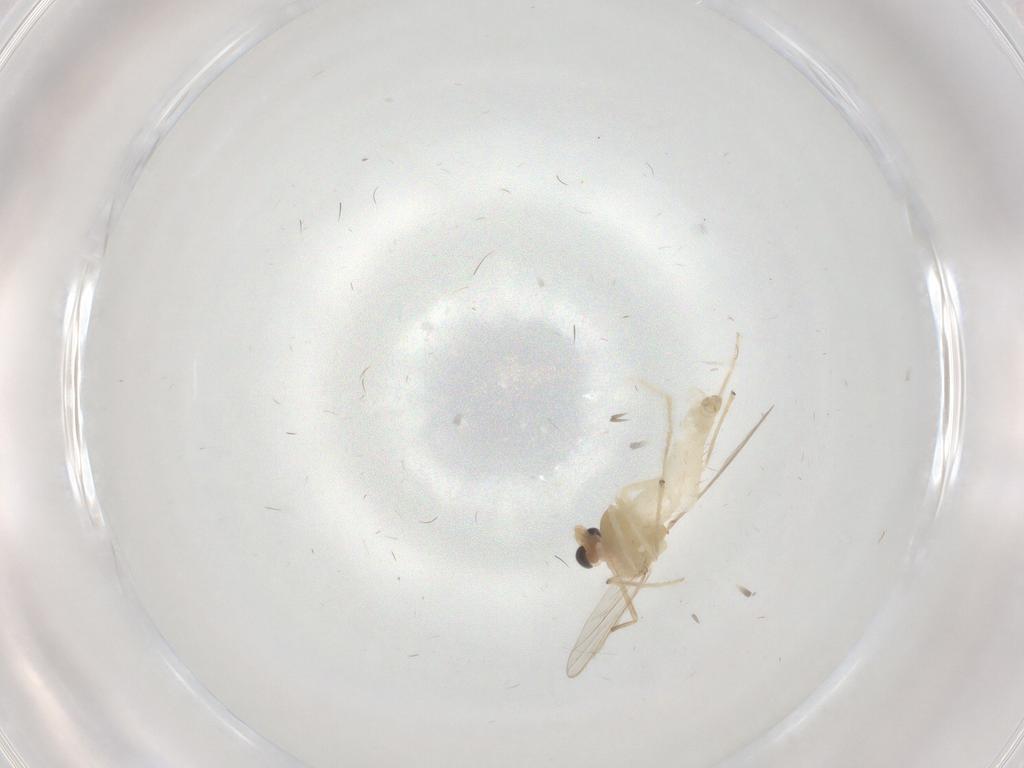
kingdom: Animalia
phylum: Arthropoda
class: Insecta
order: Diptera
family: Chironomidae
